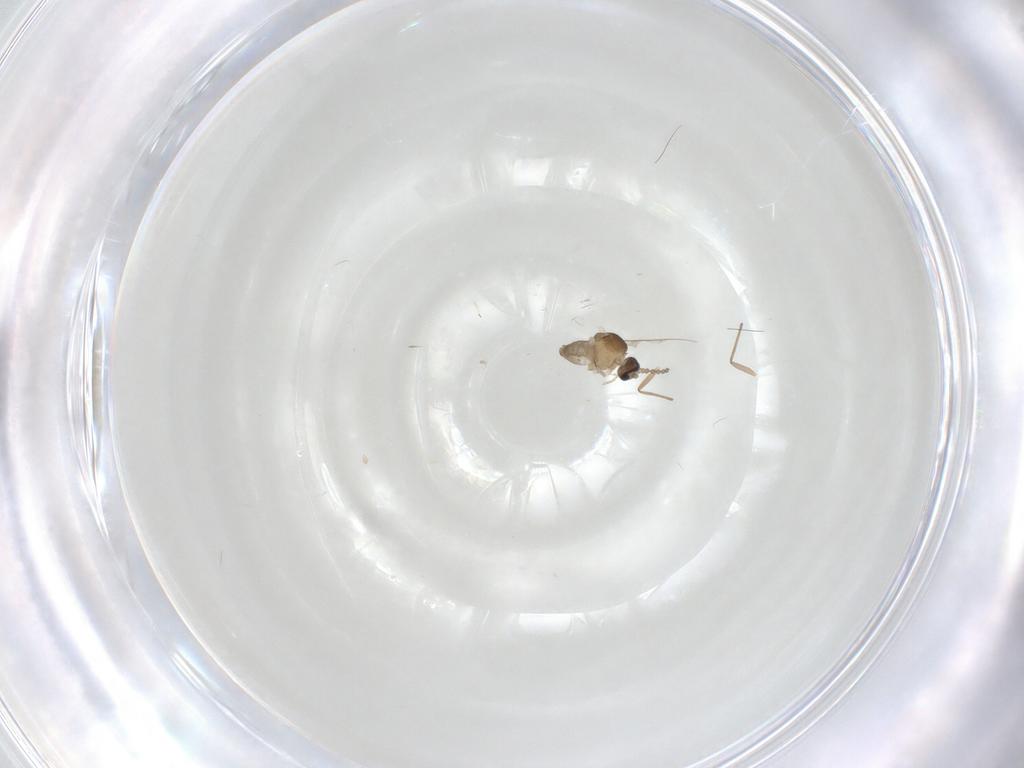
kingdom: Animalia
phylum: Arthropoda
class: Insecta
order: Diptera
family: Cecidomyiidae
